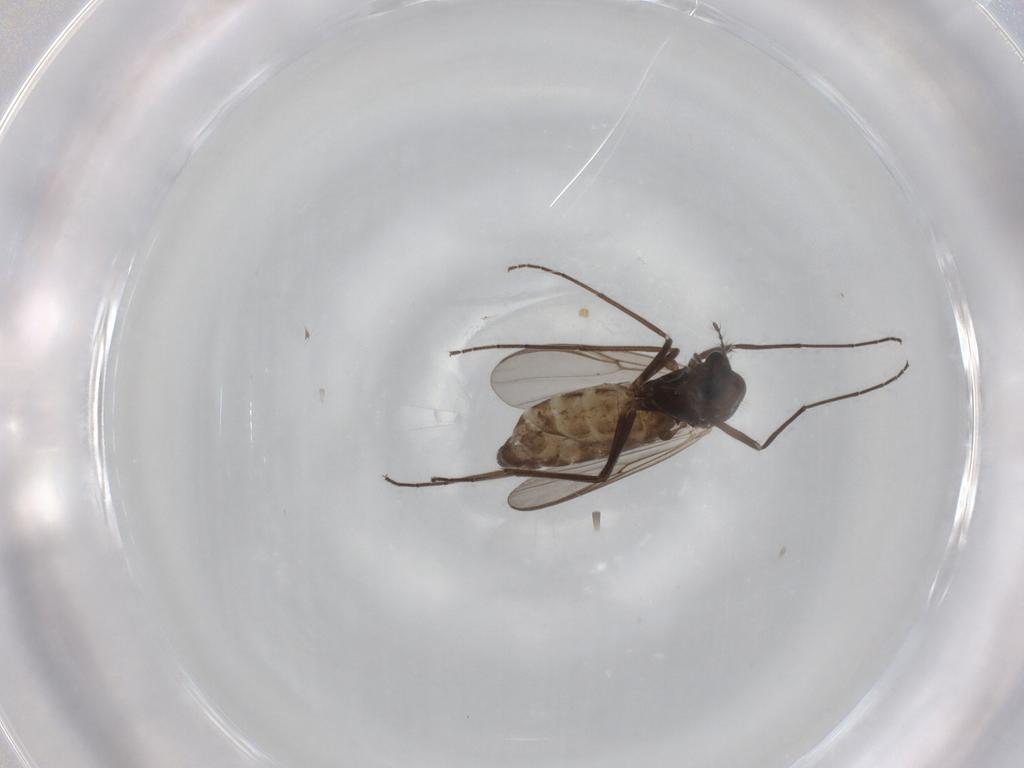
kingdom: Animalia
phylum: Arthropoda
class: Insecta
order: Diptera
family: Chironomidae
